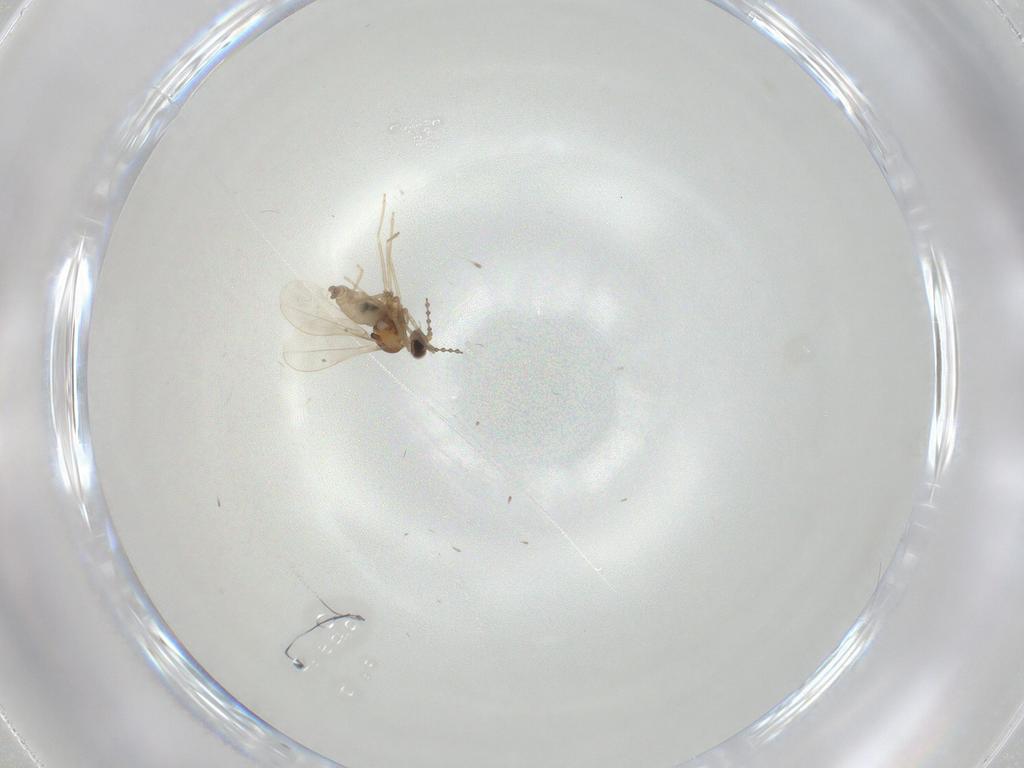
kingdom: Animalia
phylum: Arthropoda
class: Insecta
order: Diptera
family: Cecidomyiidae
